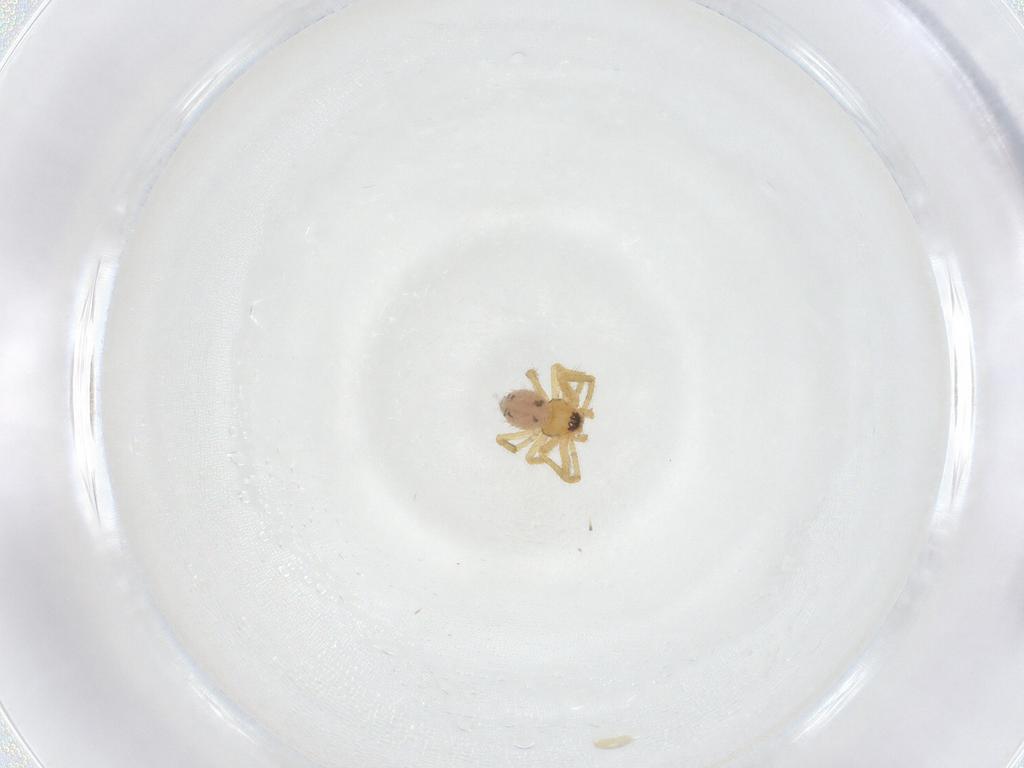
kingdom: Animalia
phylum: Arthropoda
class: Arachnida
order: Araneae
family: Theridiidae
